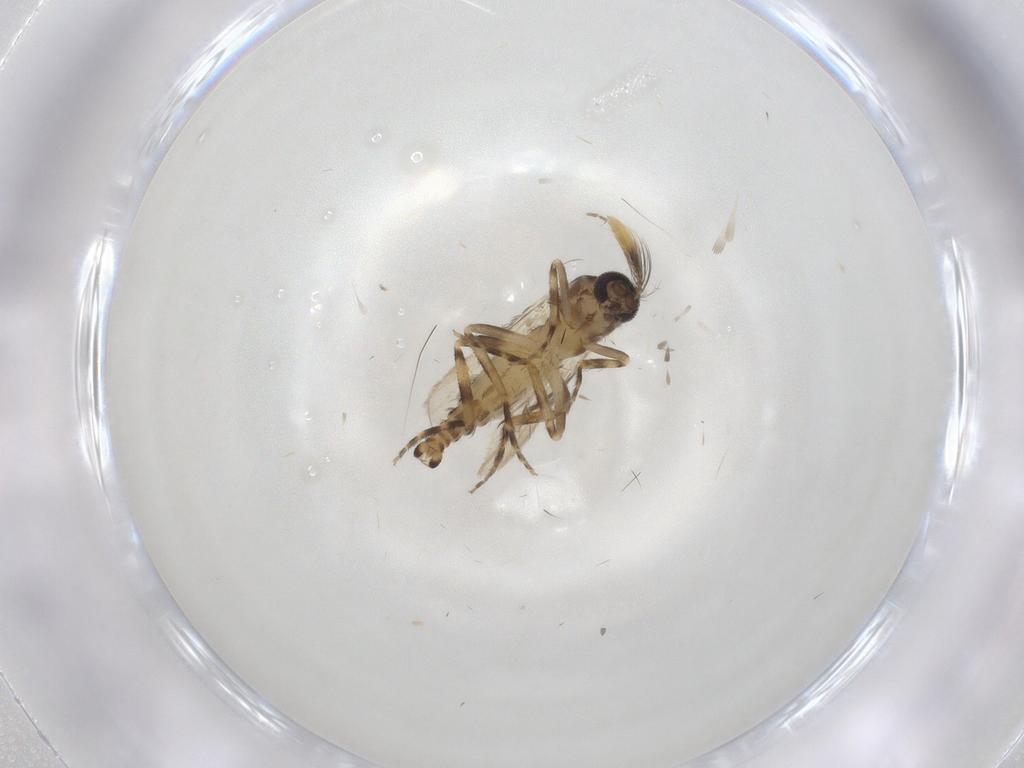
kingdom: Animalia
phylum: Arthropoda
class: Insecta
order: Diptera
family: Ceratopogonidae
